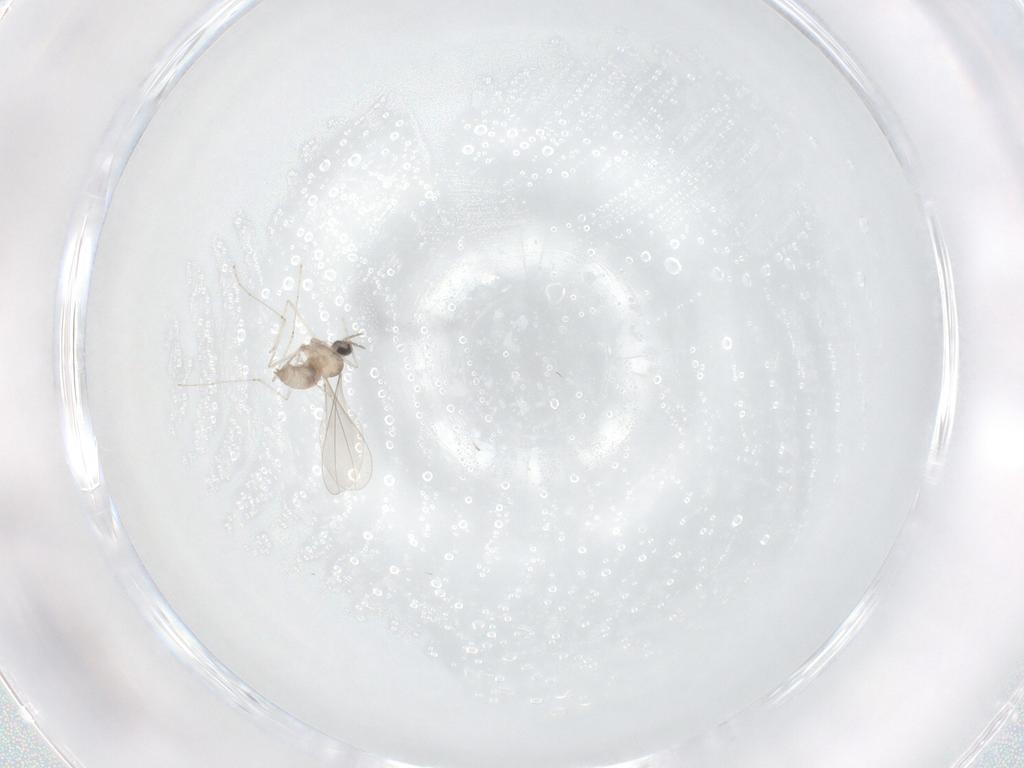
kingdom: Animalia
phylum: Arthropoda
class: Insecta
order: Diptera
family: Cecidomyiidae
